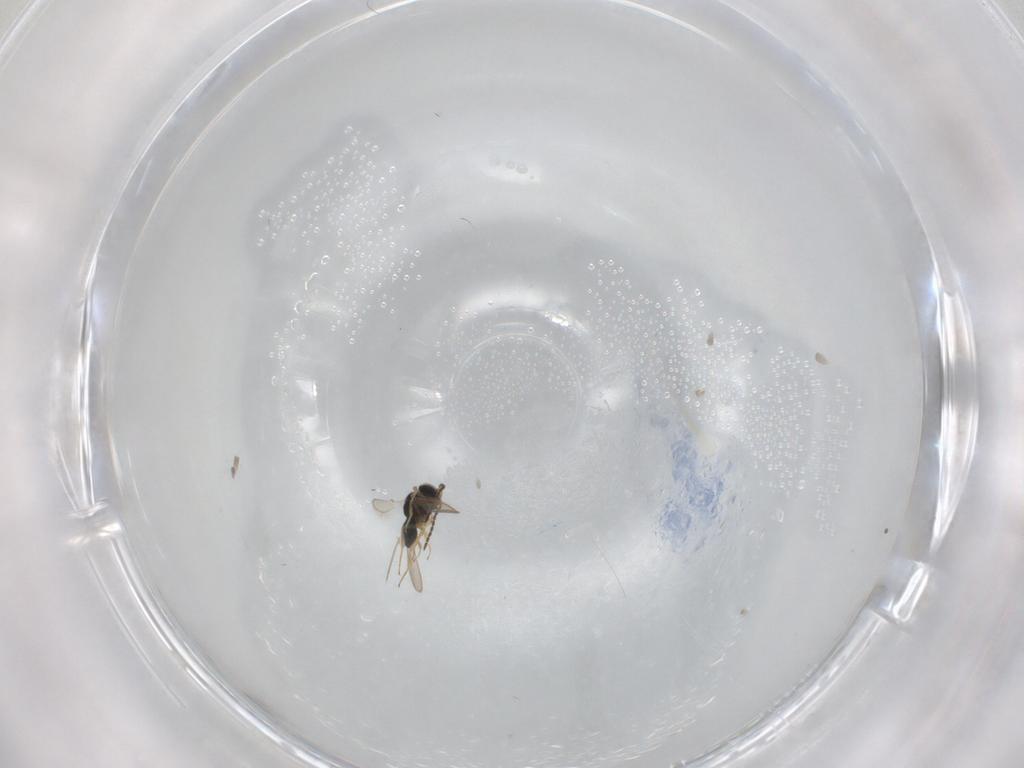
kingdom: Animalia
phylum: Arthropoda
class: Insecta
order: Hymenoptera
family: Scelionidae
